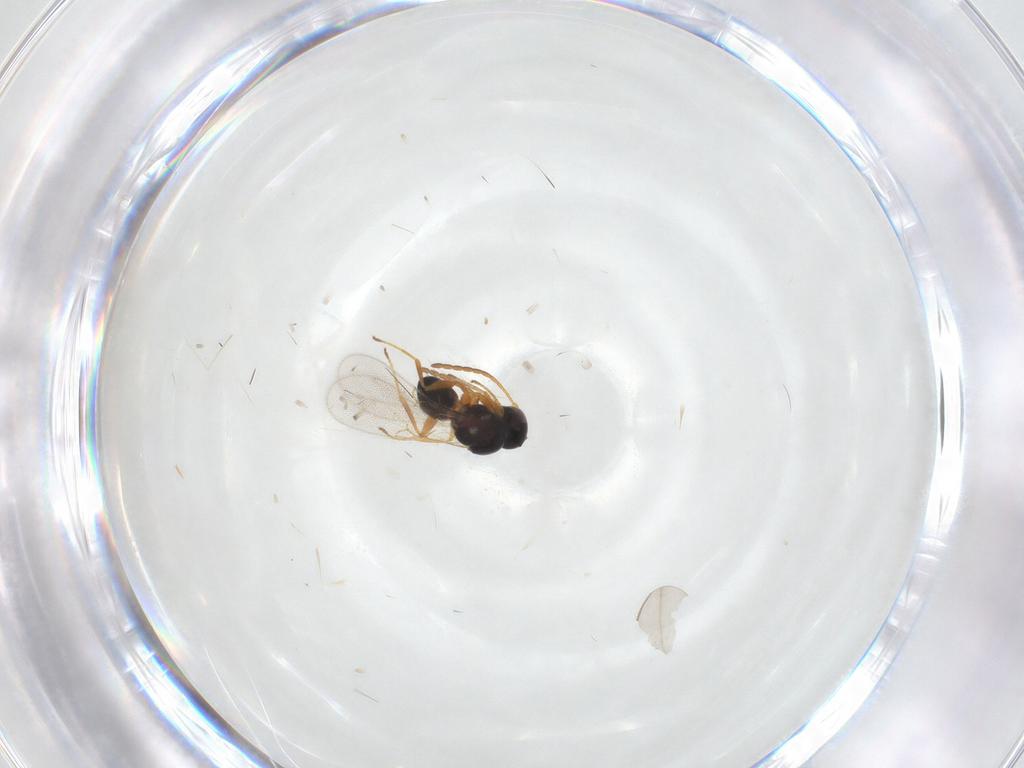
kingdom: Animalia
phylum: Arthropoda
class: Insecta
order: Hymenoptera
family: Figitidae
